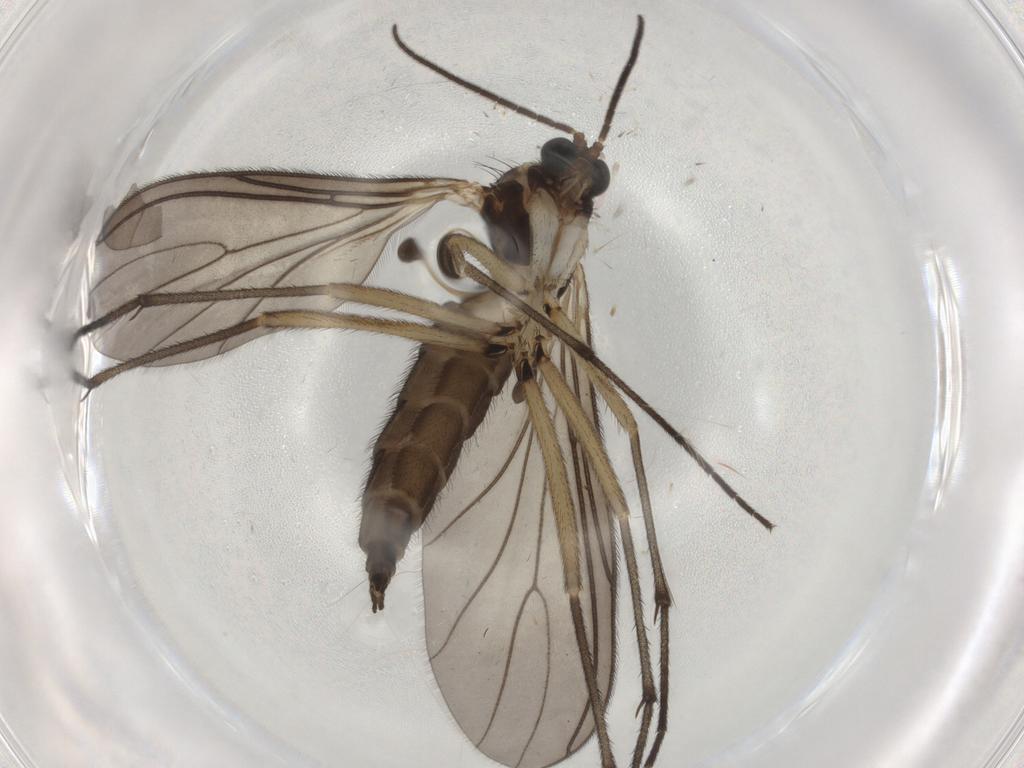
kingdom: Animalia
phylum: Arthropoda
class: Insecta
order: Diptera
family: Sciaridae
